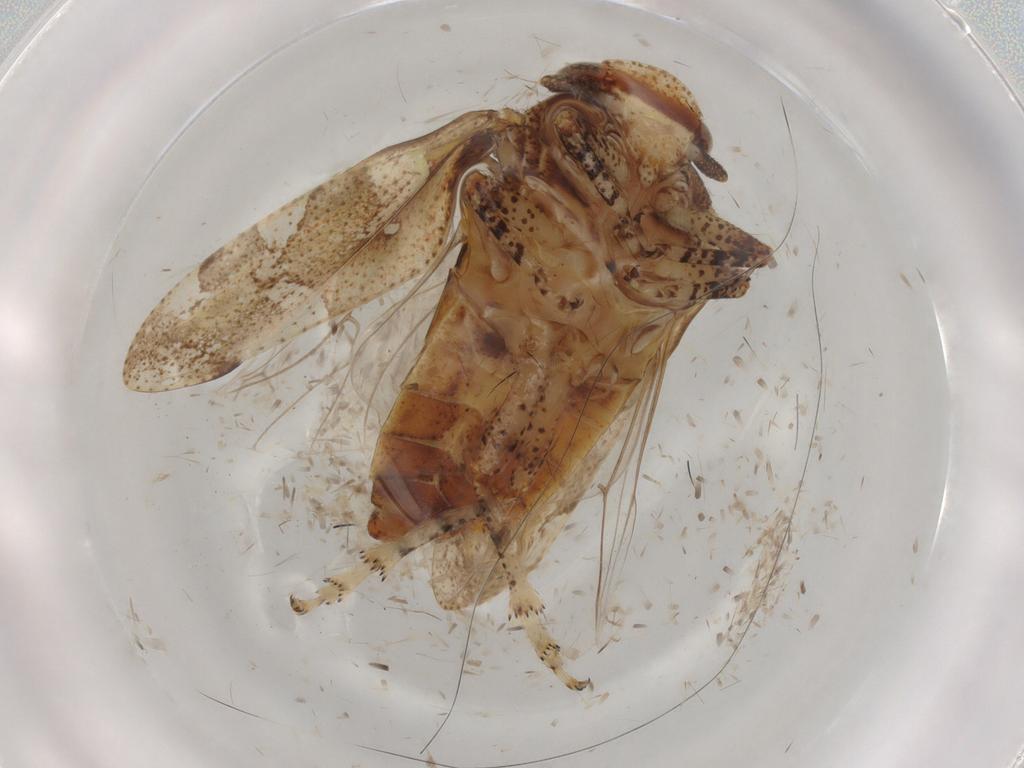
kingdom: Animalia
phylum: Arthropoda
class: Insecta
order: Hemiptera
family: Tettigometridae
